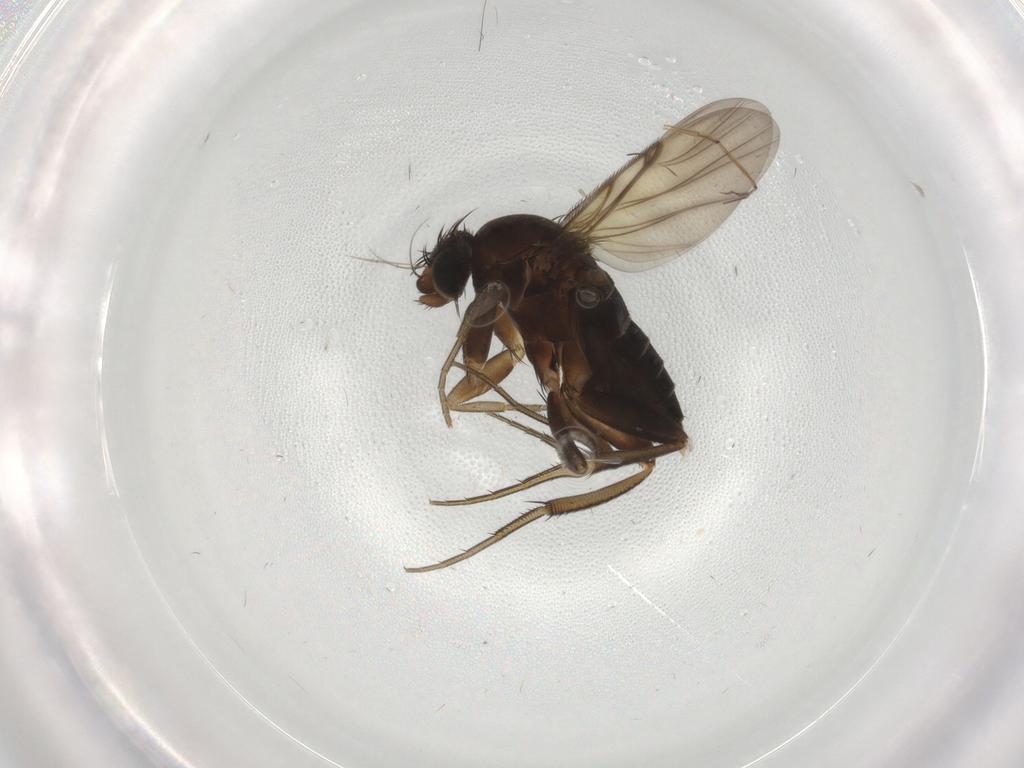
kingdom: Animalia
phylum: Arthropoda
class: Insecta
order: Diptera
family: Phoridae
